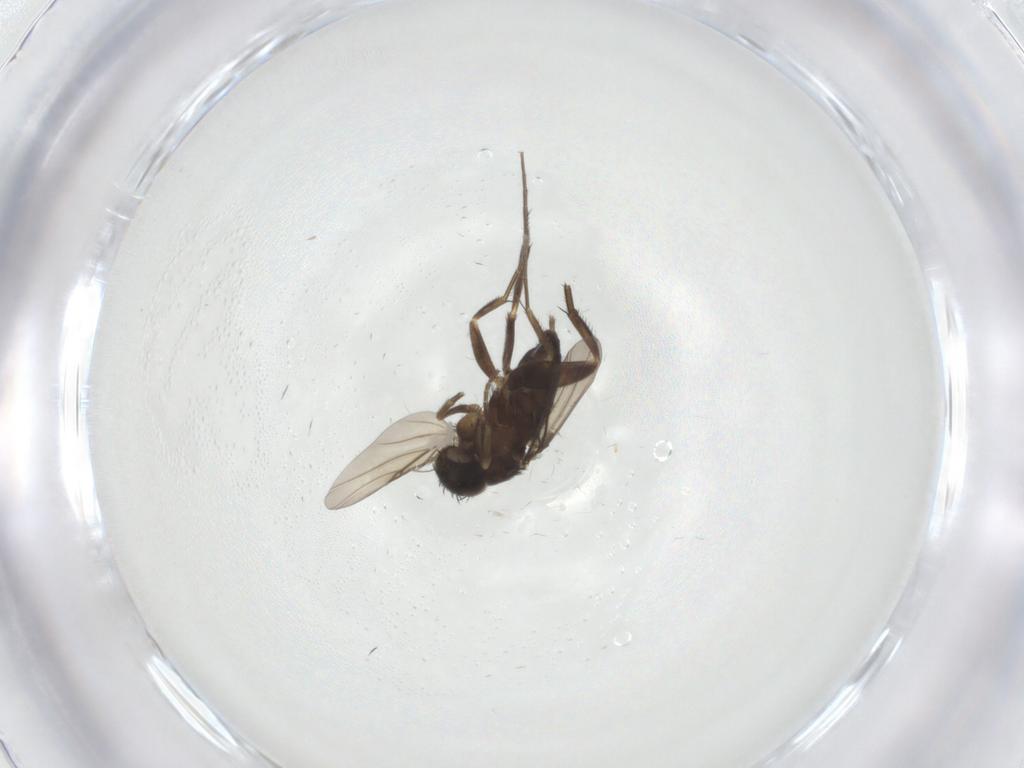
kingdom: Animalia
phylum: Arthropoda
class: Insecta
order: Diptera
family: Phoridae
